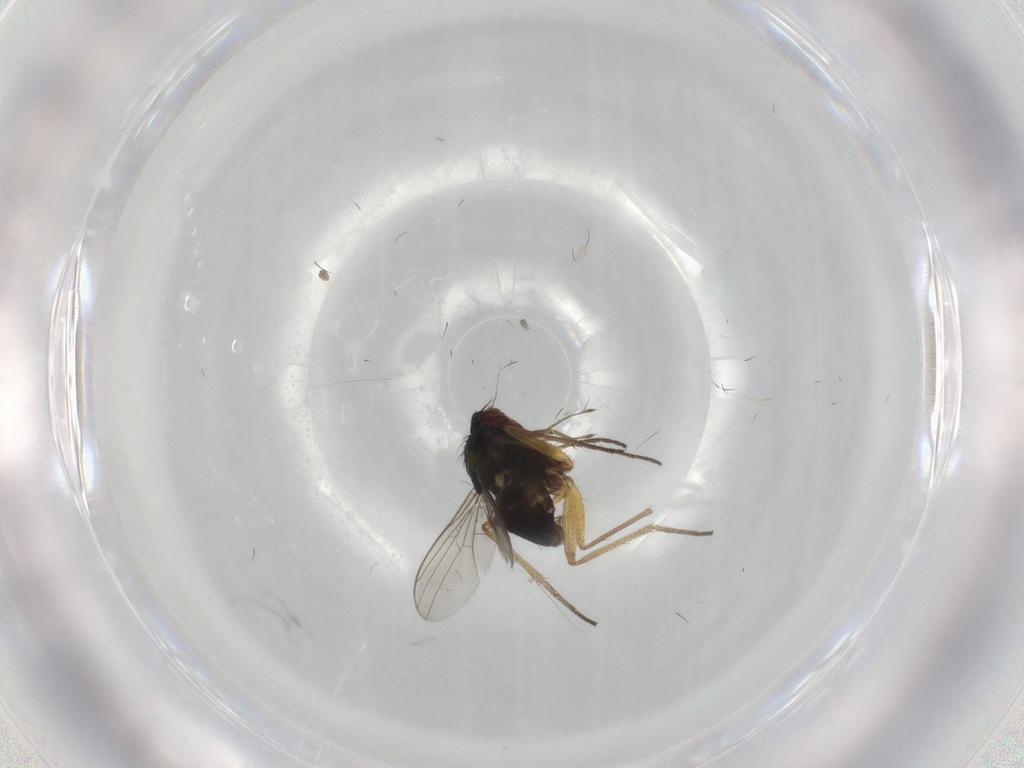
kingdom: Animalia
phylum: Arthropoda
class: Insecta
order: Diptera
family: Dolichopodidae
